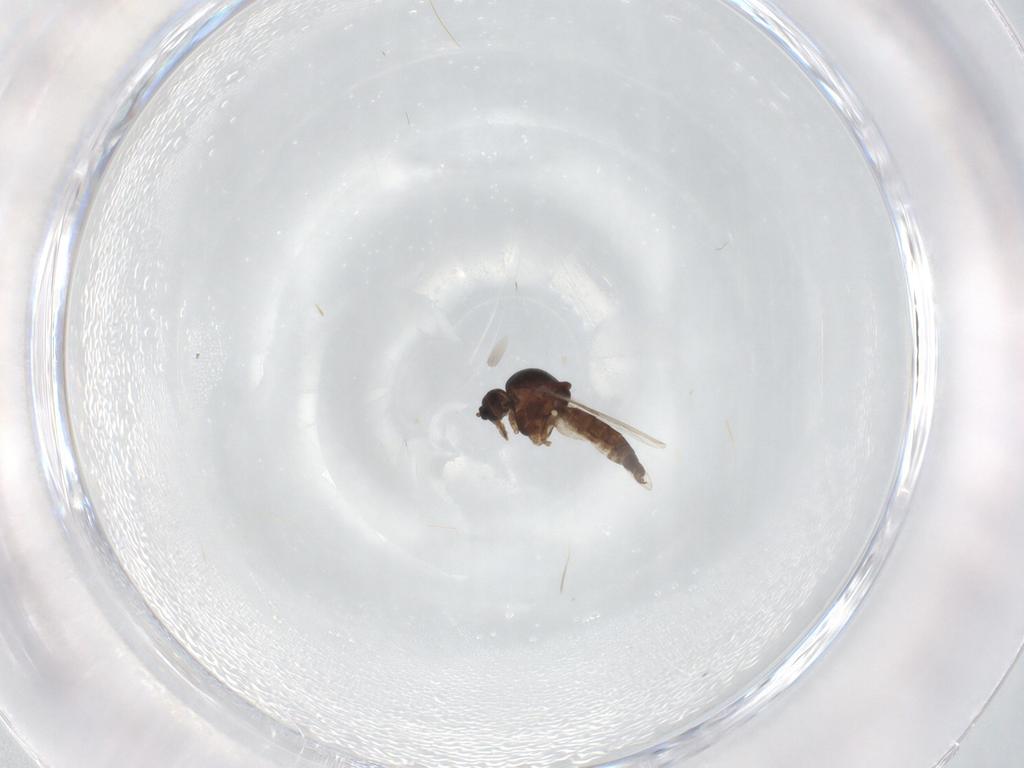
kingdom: Animalia
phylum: Arthropoda
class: Insecta
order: Diptera
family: Ceratopogonidae
